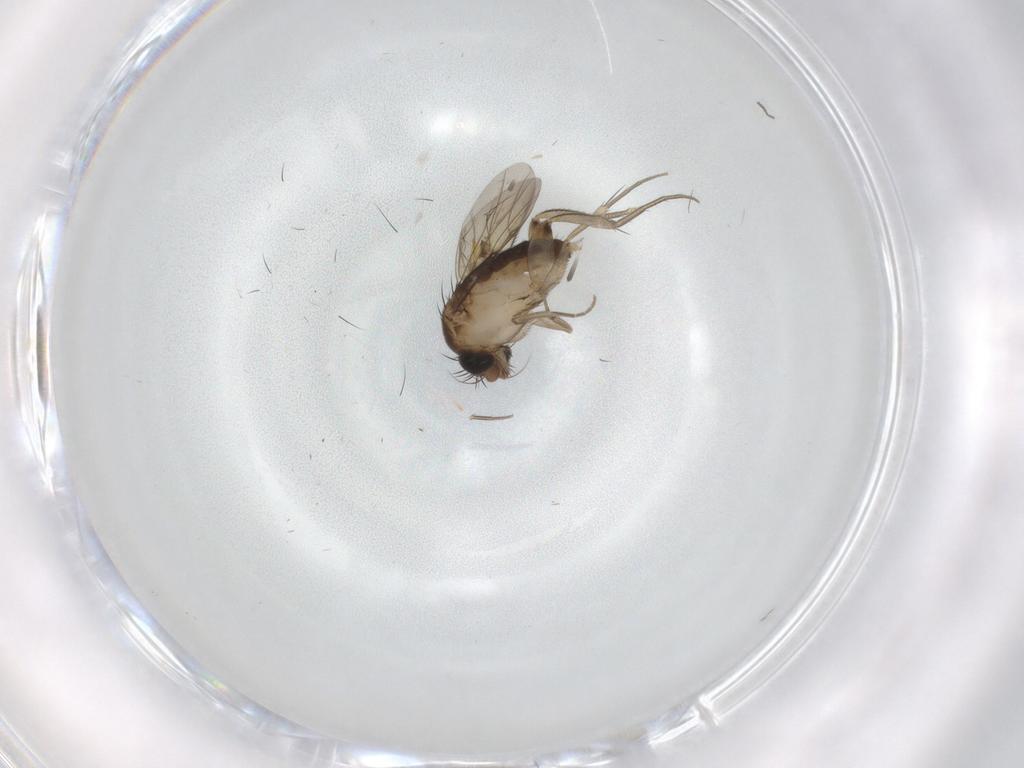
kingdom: Animalia
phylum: Arthropoda
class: Insecta
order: Diptera
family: Phoridae
